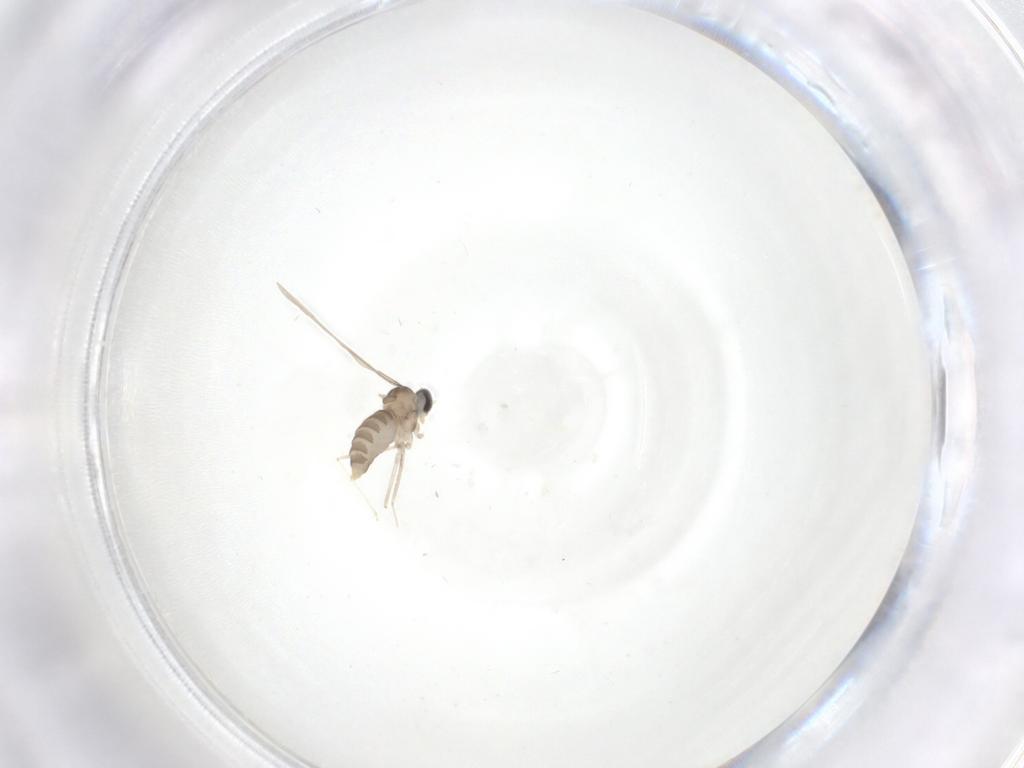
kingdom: Animalia
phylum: Arthropoda
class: Insecta
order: Diptera
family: Cecidomyiidae
